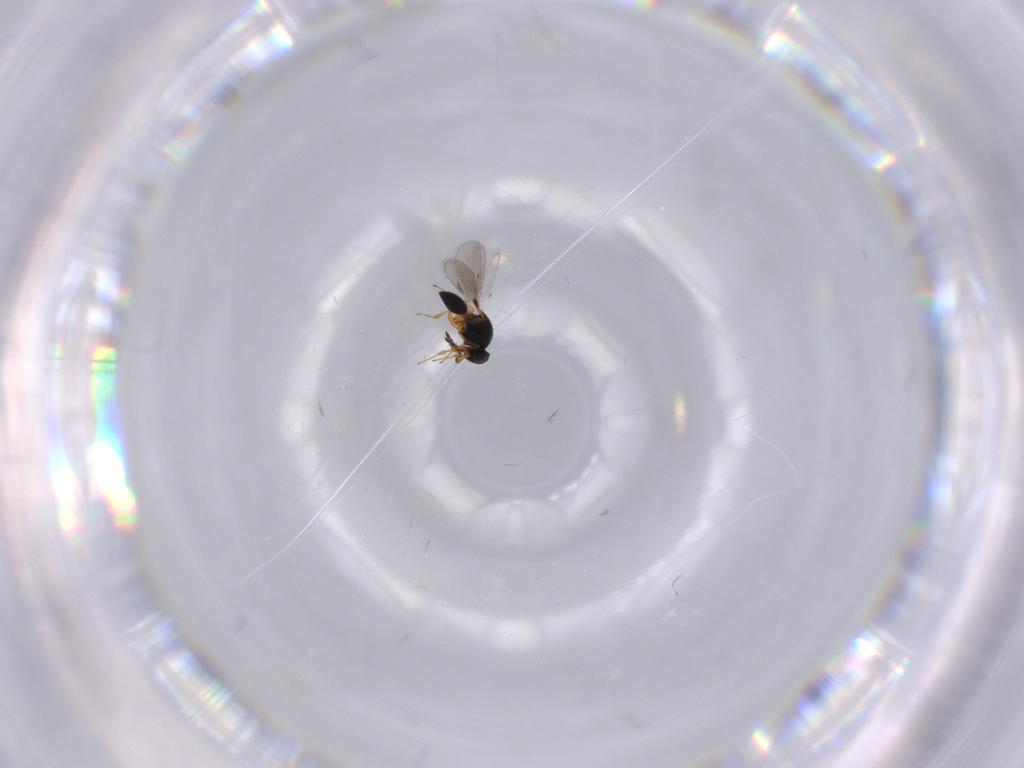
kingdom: Animalia
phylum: Arthropoda
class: Insecta
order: Hymenoptera
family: Platygastridae
